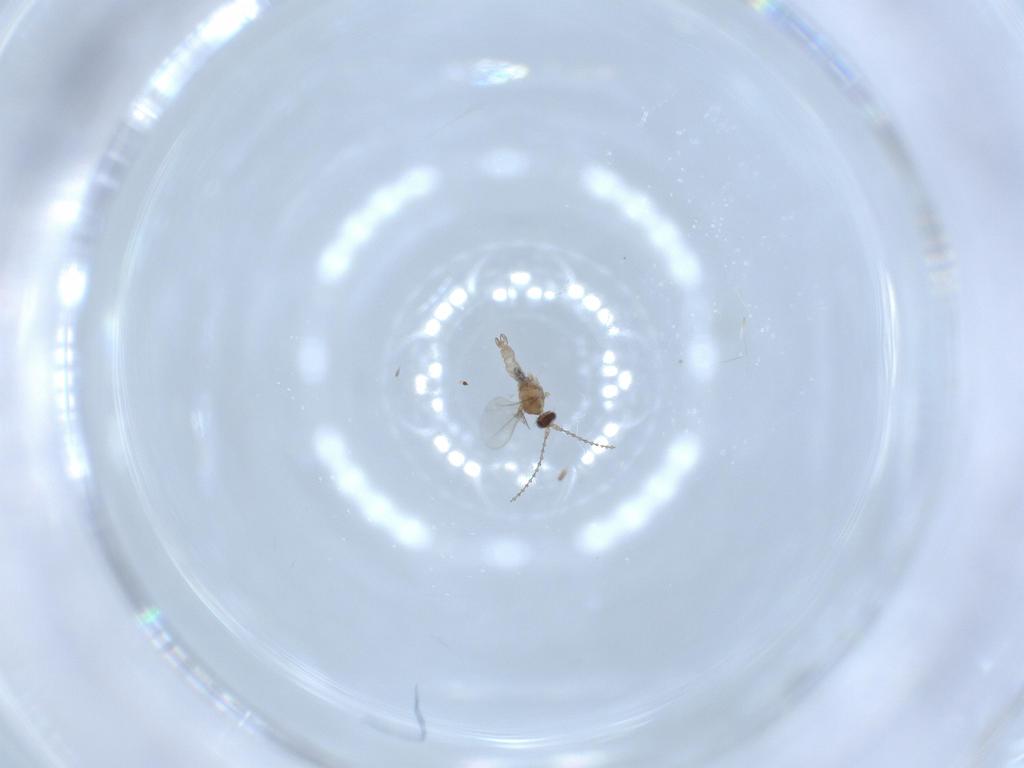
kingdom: Animalia
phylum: Arthropoda
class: Insecta
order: Diptera
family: Cecidomyiidae
